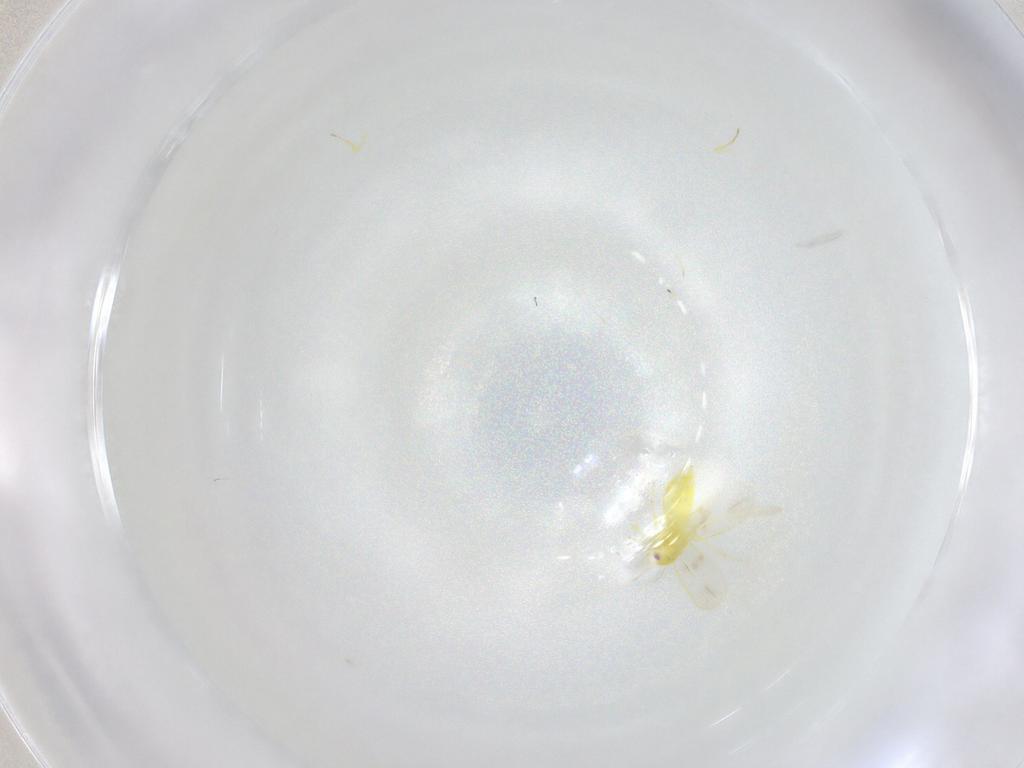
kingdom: Animalia
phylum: Arthropoda
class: Insecta
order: Hemiptera
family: Aleyrodidae
